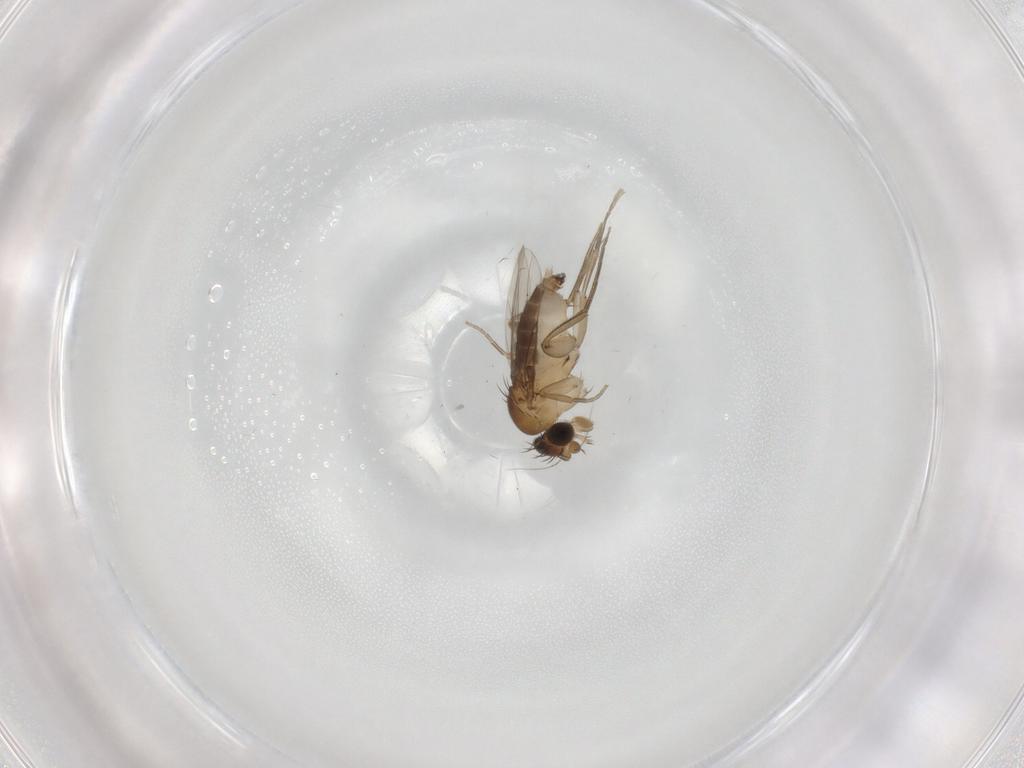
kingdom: Animalia
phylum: Arthropoda
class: Insecta
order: Diptera
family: Phoridae
